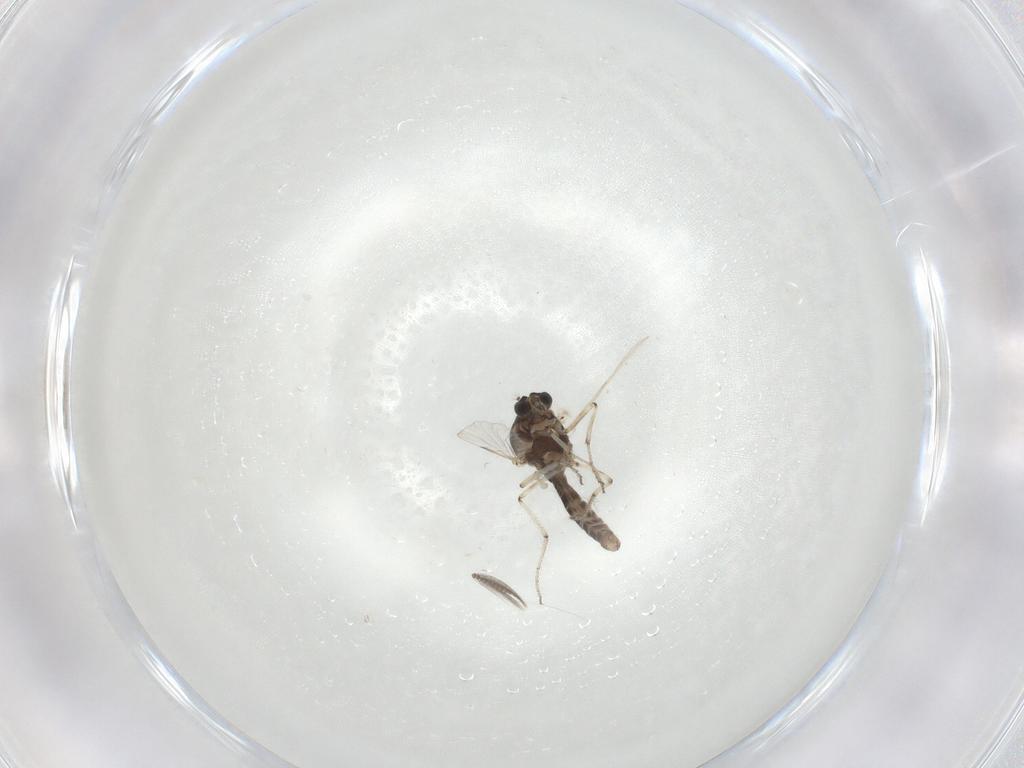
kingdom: Animalia
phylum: Arthropoda
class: Insecta
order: Diptera
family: Ceratopogonidae
